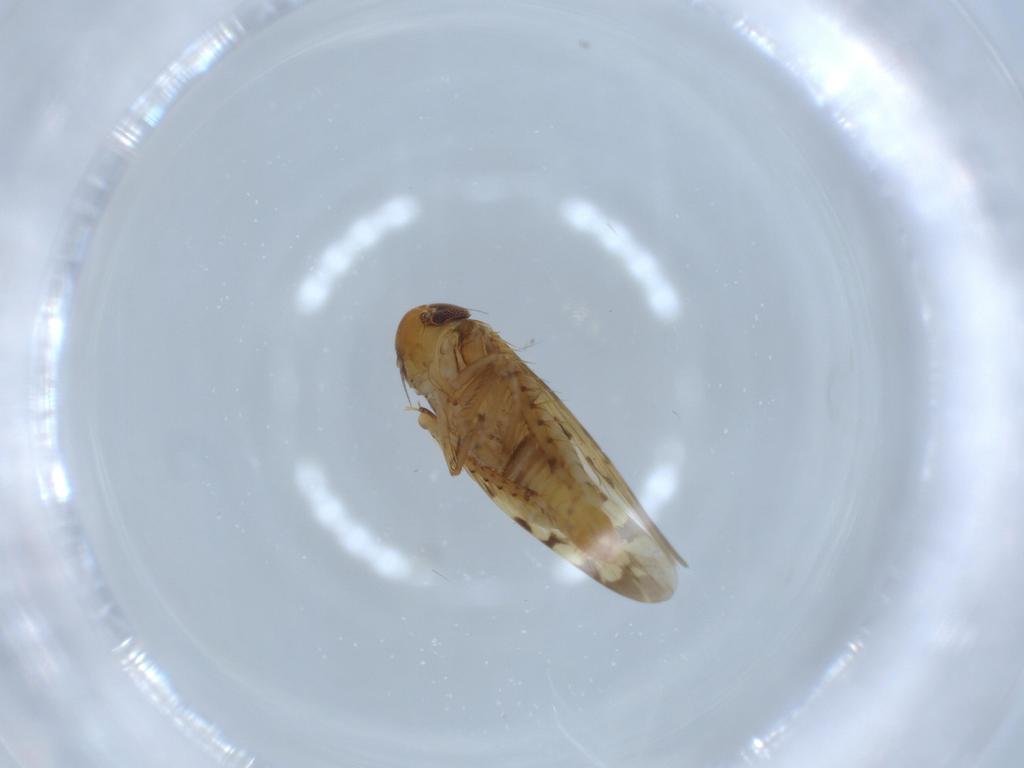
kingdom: Animalia
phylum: Arthropoda
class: Insecta
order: Hemiptera
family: Cicadellidae
